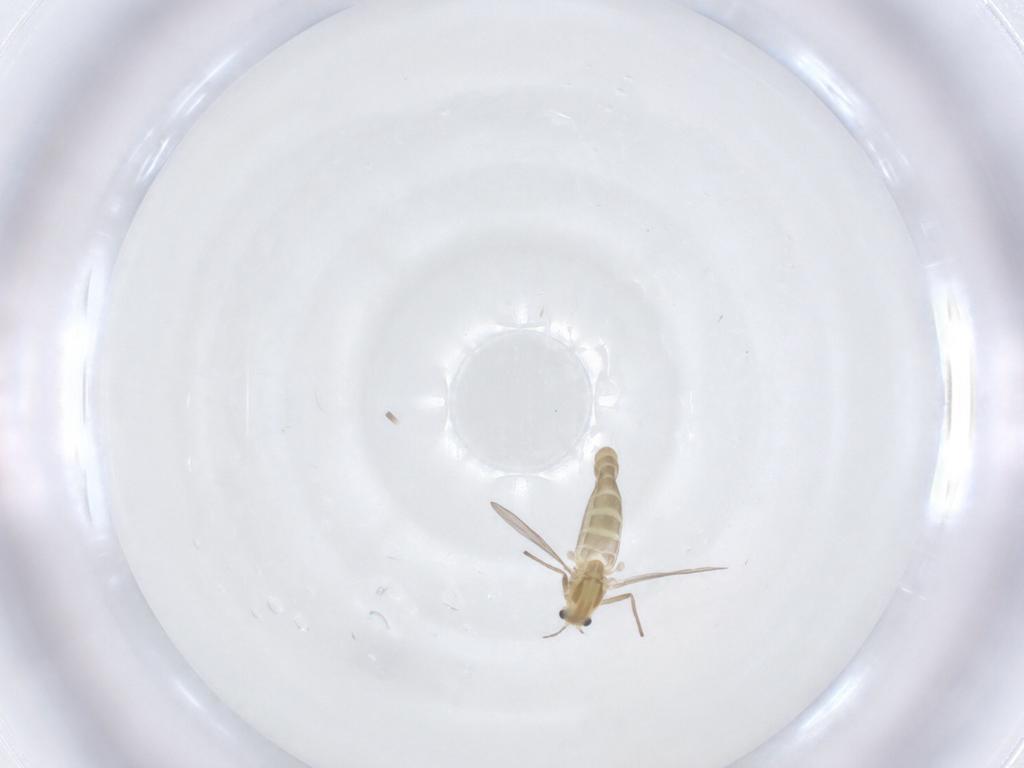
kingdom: Animalia
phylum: Arthropoda
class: Insecta
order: Diptera
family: Chironomidae
